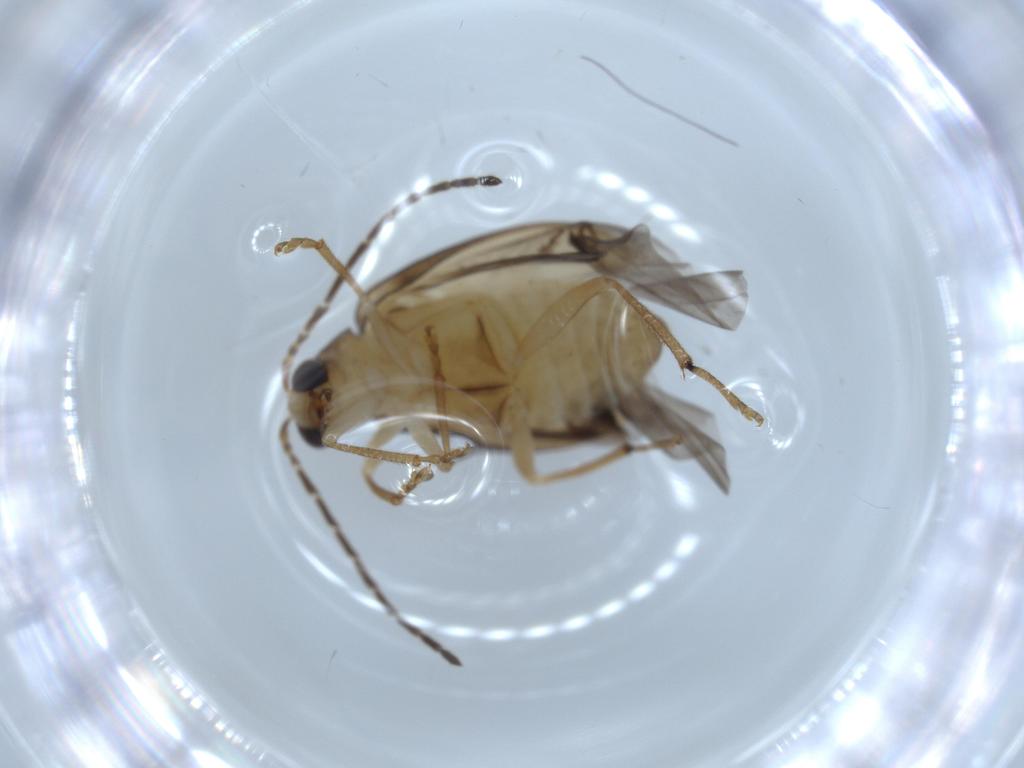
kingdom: Animalia
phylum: Arthropoda
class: Insecta
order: Coleoptera
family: Chrysomelidae
